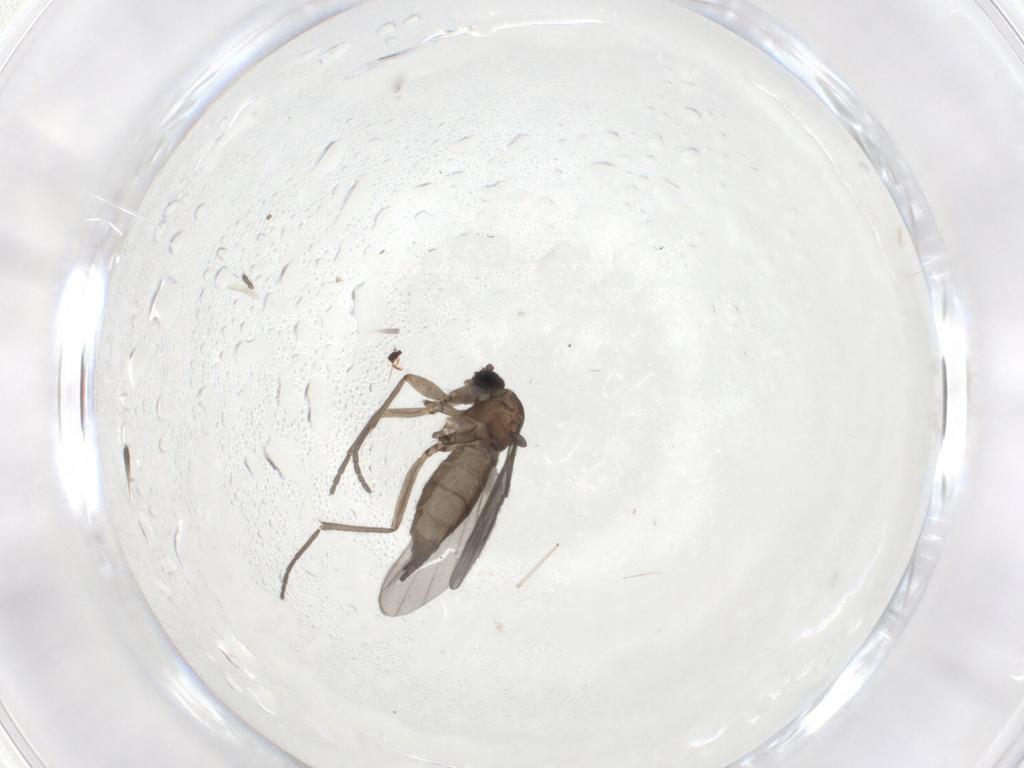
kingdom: Animalia
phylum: Arthropoda
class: Insecta
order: Diptera
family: Sciaridae
